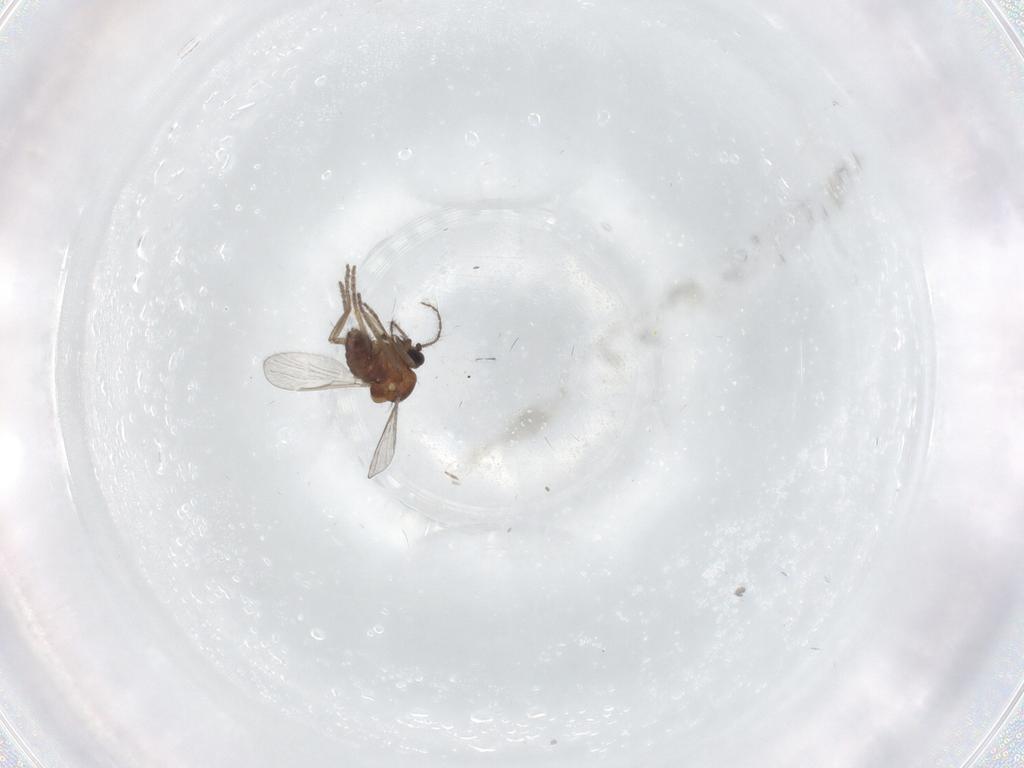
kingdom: Animalia
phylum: Arthropoda
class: Insecta
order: Diptera
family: Ceratopogonidae
